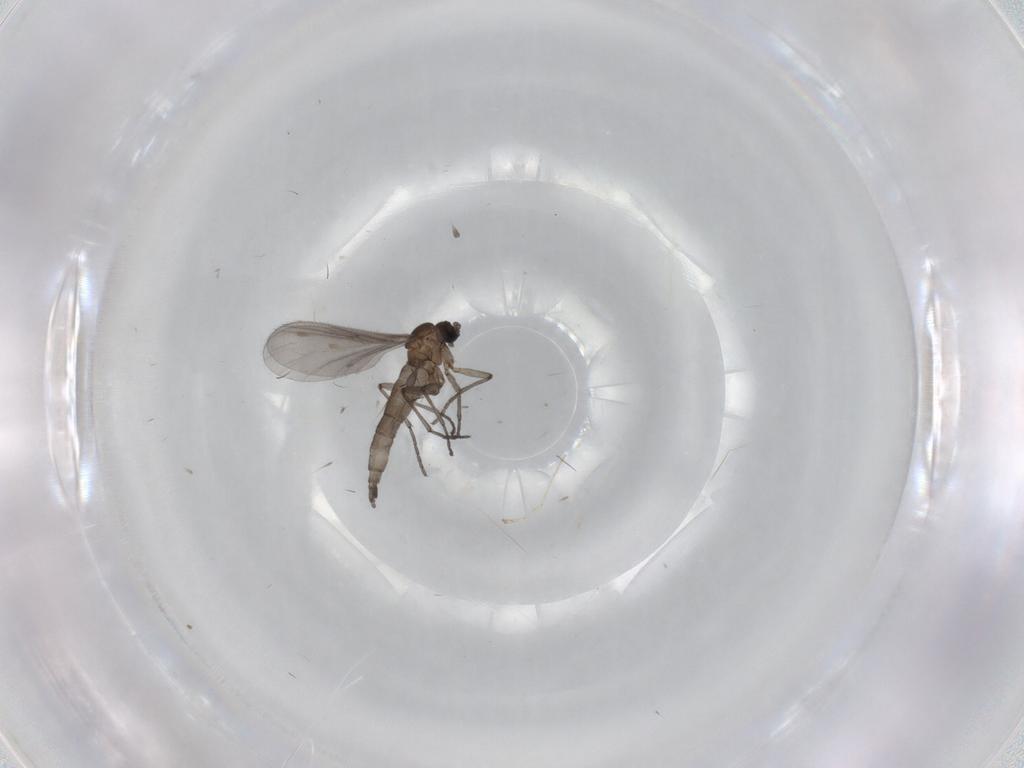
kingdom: Animalia
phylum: Arthropoda
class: Insecta
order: Diptera
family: Sciaridae
